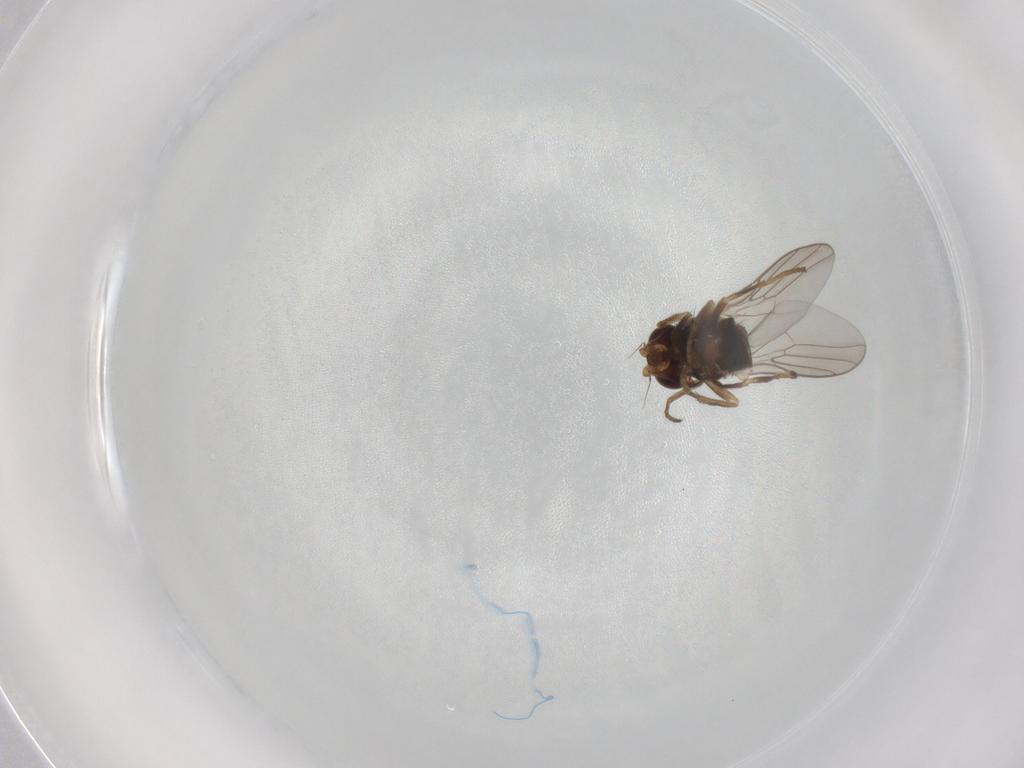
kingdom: Animalia
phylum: Arthropoda
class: Insecta
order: Diptera
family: Chloropidae
